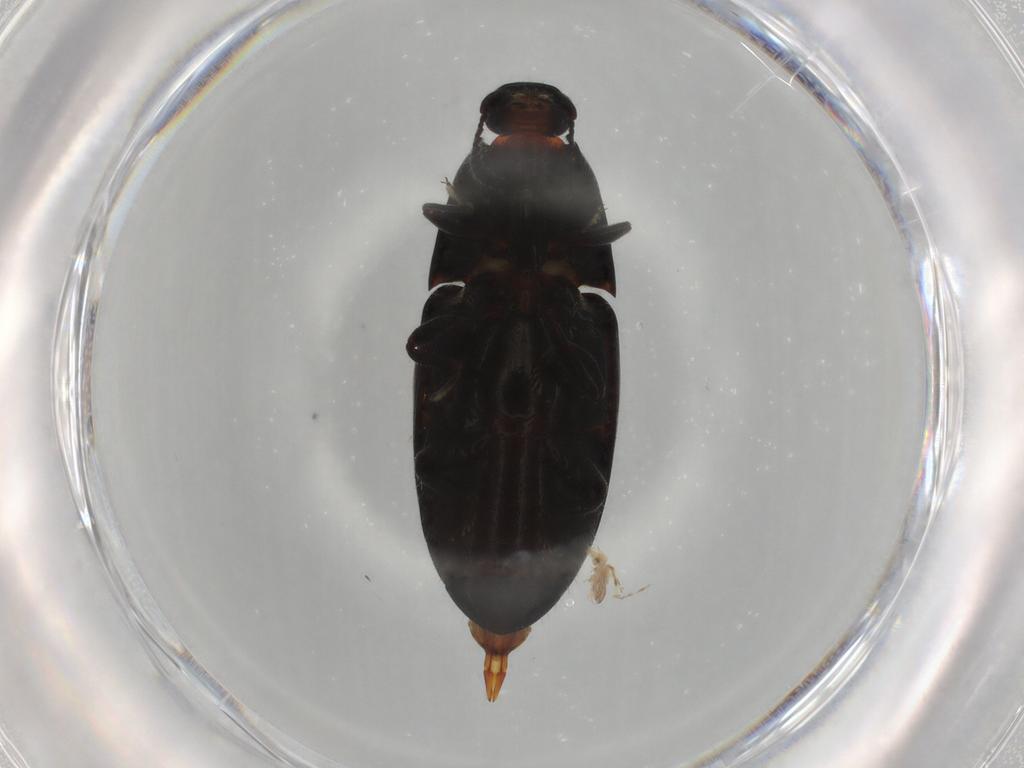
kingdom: Animalia
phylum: Arthropoda
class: Insecta
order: Coleoptera
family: Elateridae
